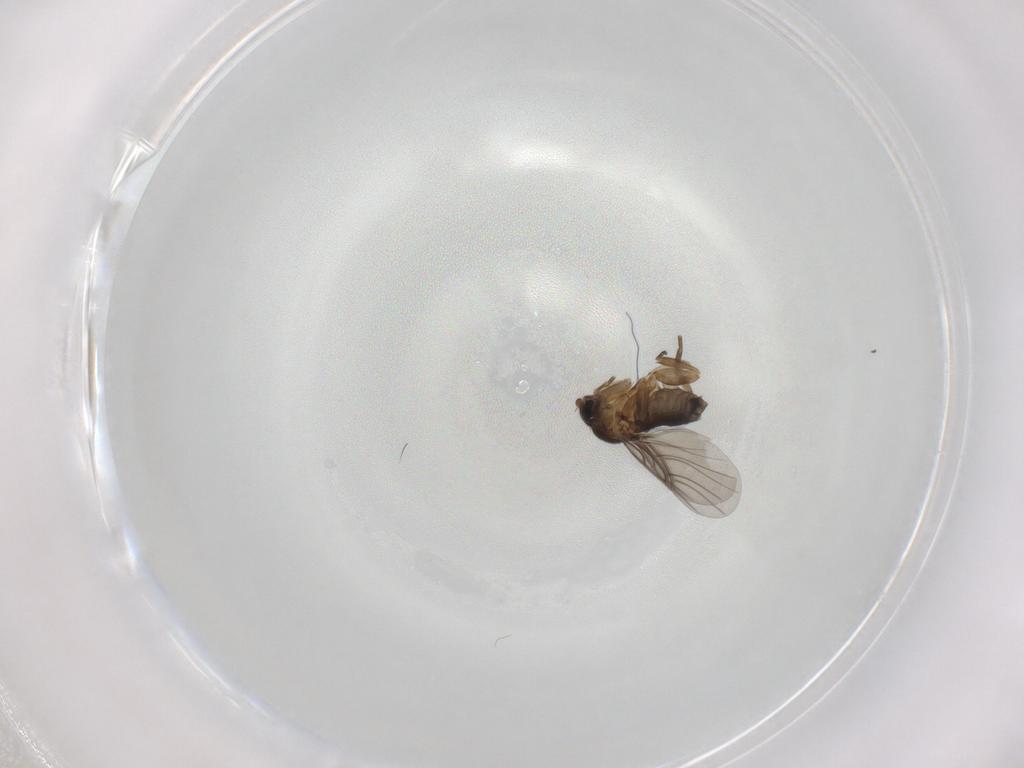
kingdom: Animalia
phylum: Arthropoda
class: Insecta
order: Diptera
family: Phoridae
